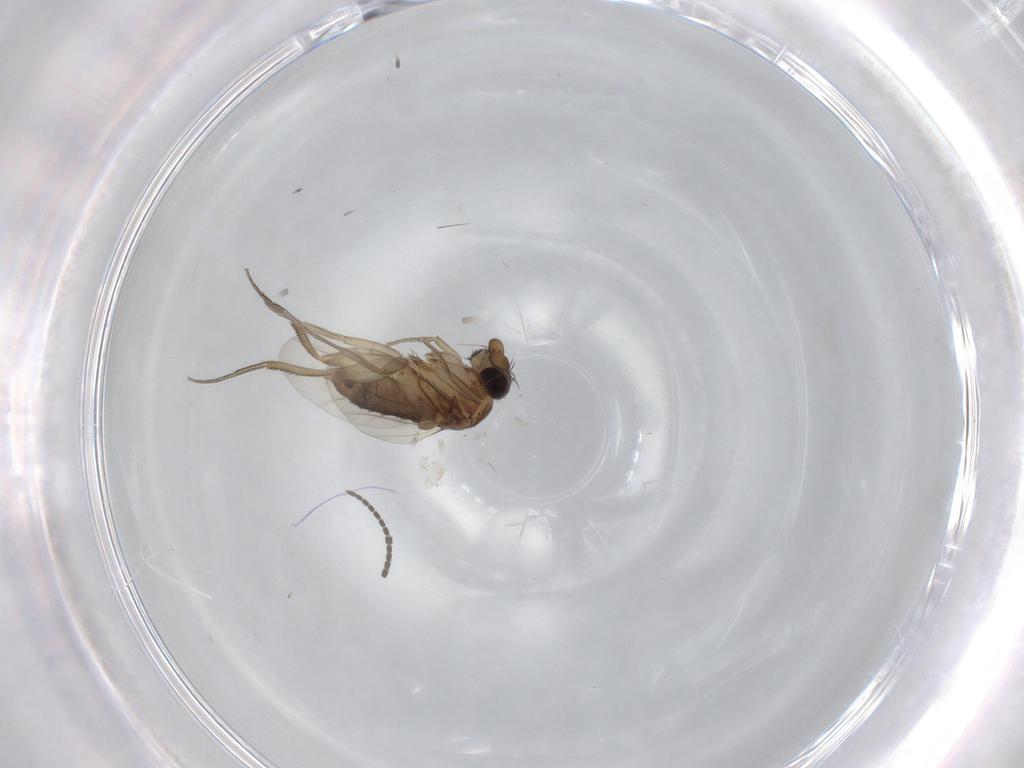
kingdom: Animalia
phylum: Arthropoda
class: Insecta
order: Diptera
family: Phoridae
